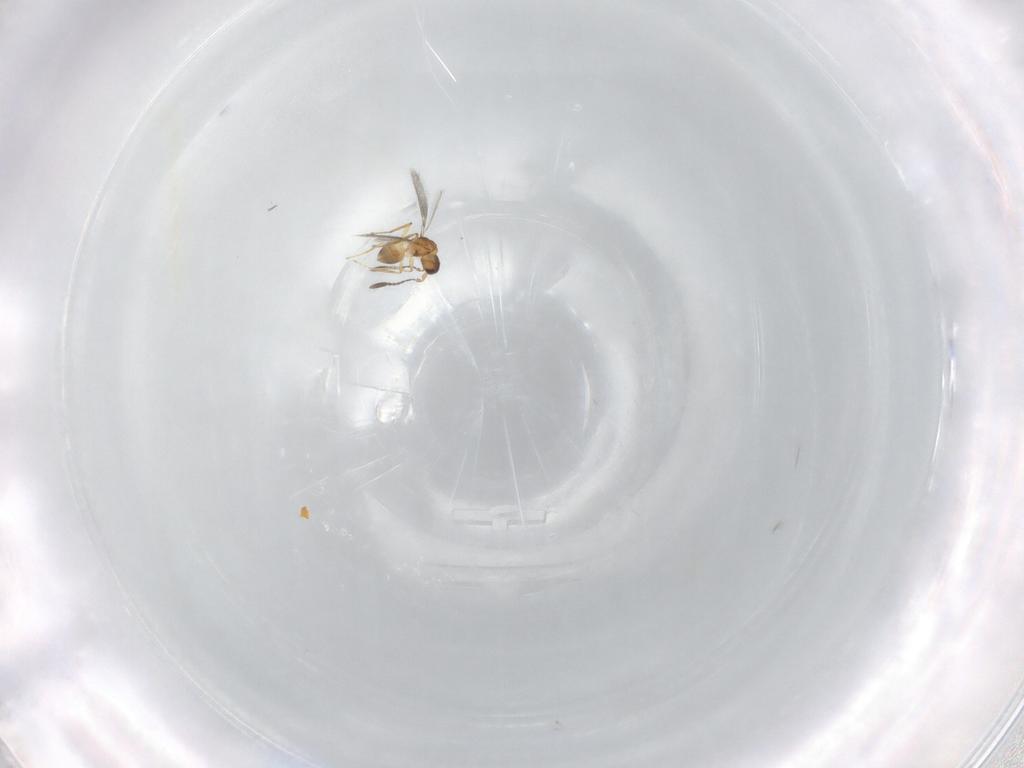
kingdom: Animalia
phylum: Arthropoda
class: Insecta
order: Hymenoptera
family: Mymaridae
